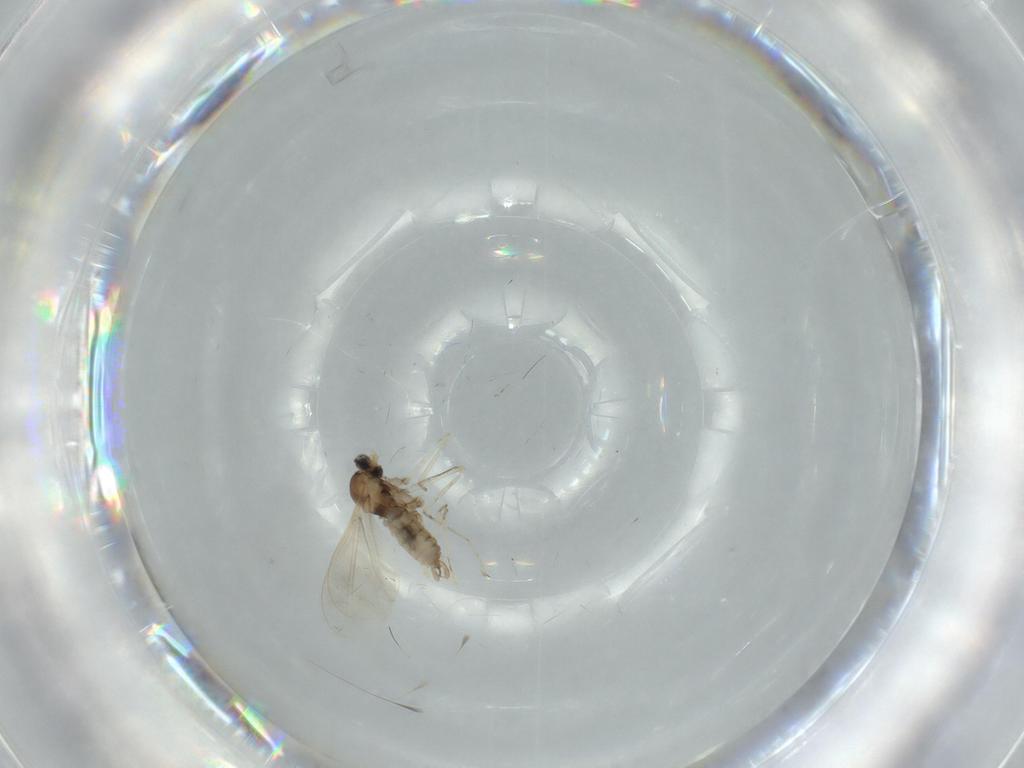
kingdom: Animalia
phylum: Arthropoda
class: Insecta
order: Diptera
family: Cecidomyiidae
